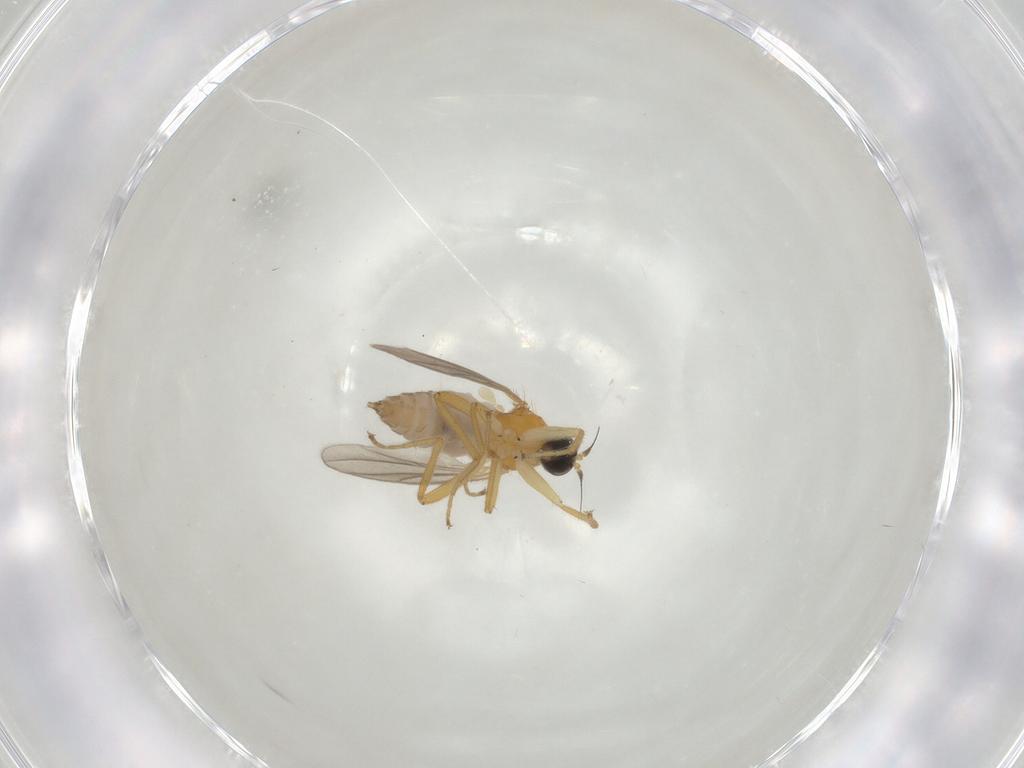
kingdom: Animalia
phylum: Arthropoda
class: Insecta
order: Diptera
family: Hybotidae
